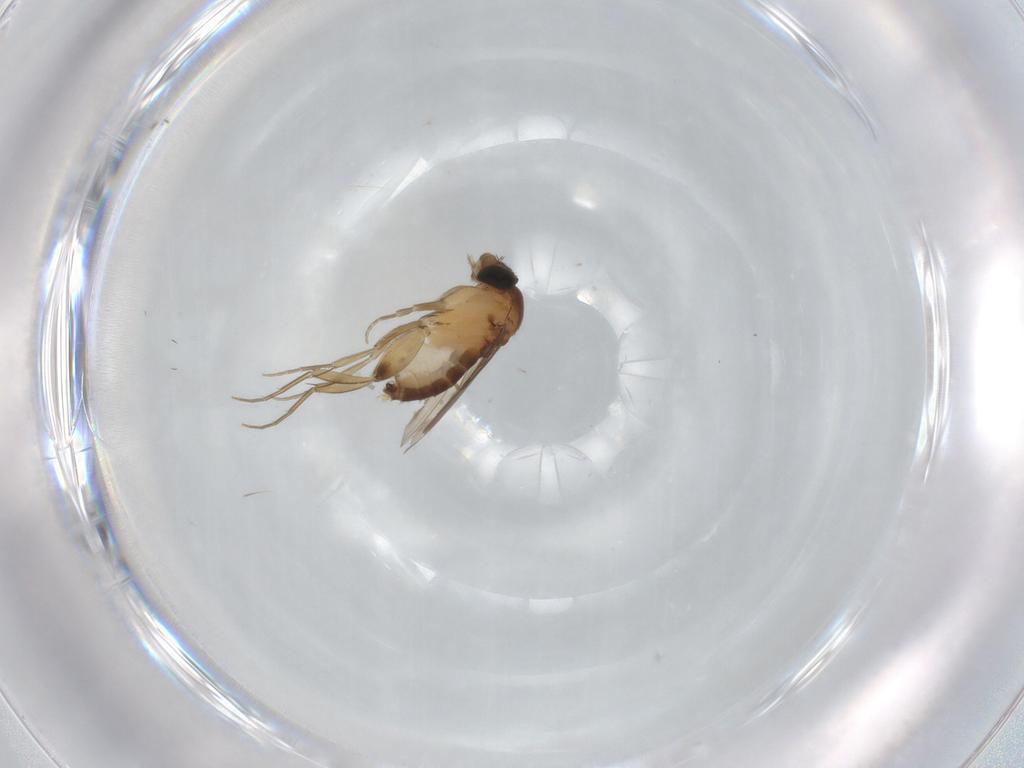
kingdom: Animalia
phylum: Arthropoda
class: Insecta
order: Diptera
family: Phoridae
